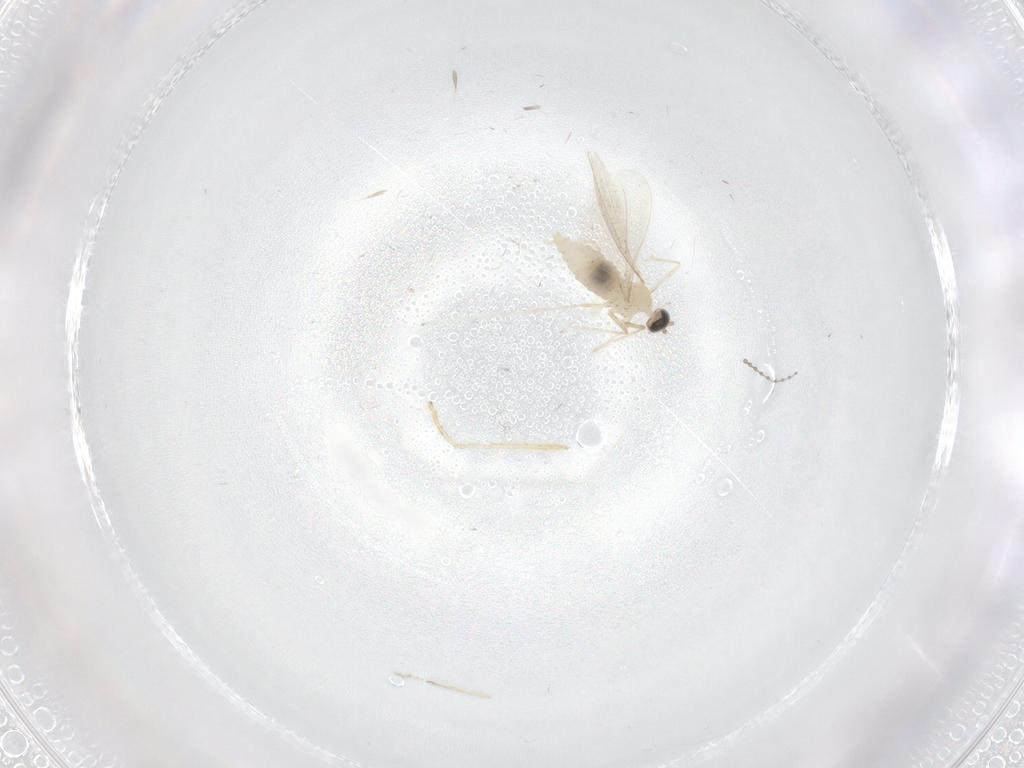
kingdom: Animalia
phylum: Arthropoda
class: Insecta
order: Diptera
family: Cecidomyiidae
